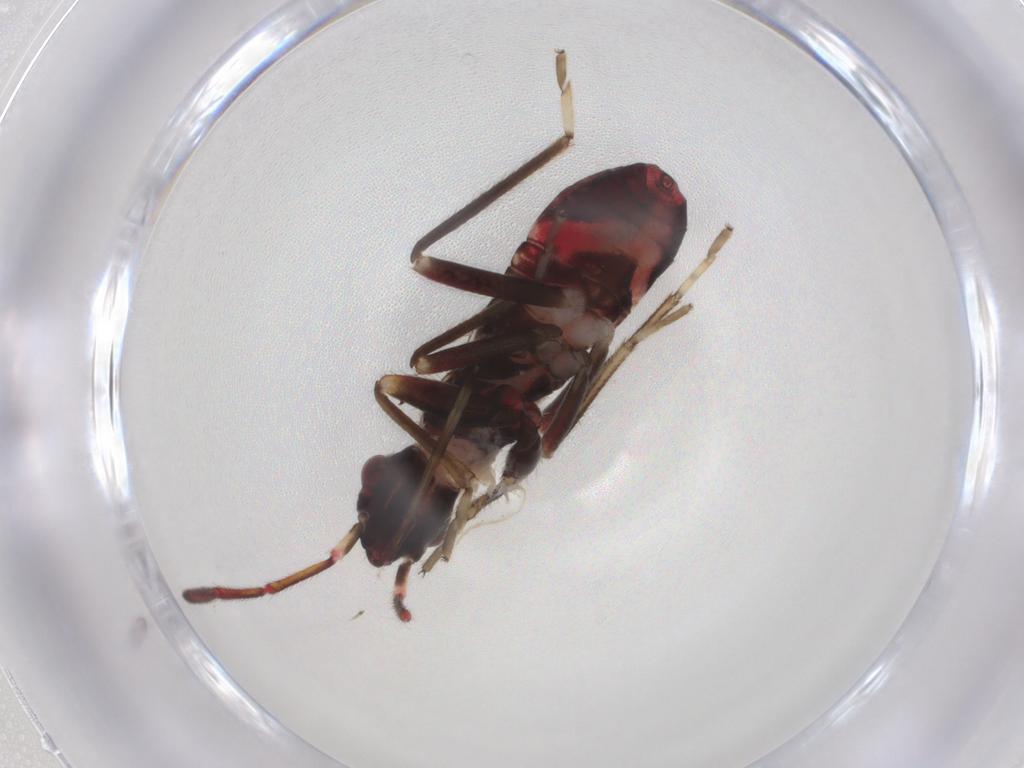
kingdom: Animalia
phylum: Arthropoda
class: Insecta
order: Hemiptera
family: Rhyparochromidae
